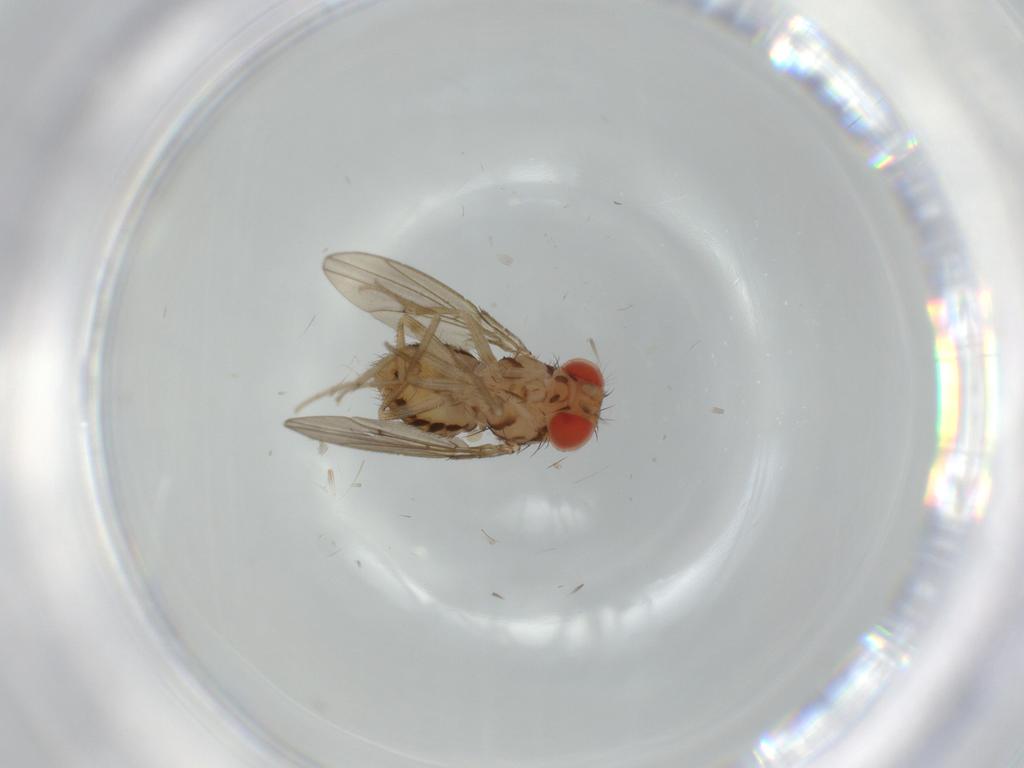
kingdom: Animalia
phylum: Arthropoda
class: Insecta
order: Diptera
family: Drosophilidae
